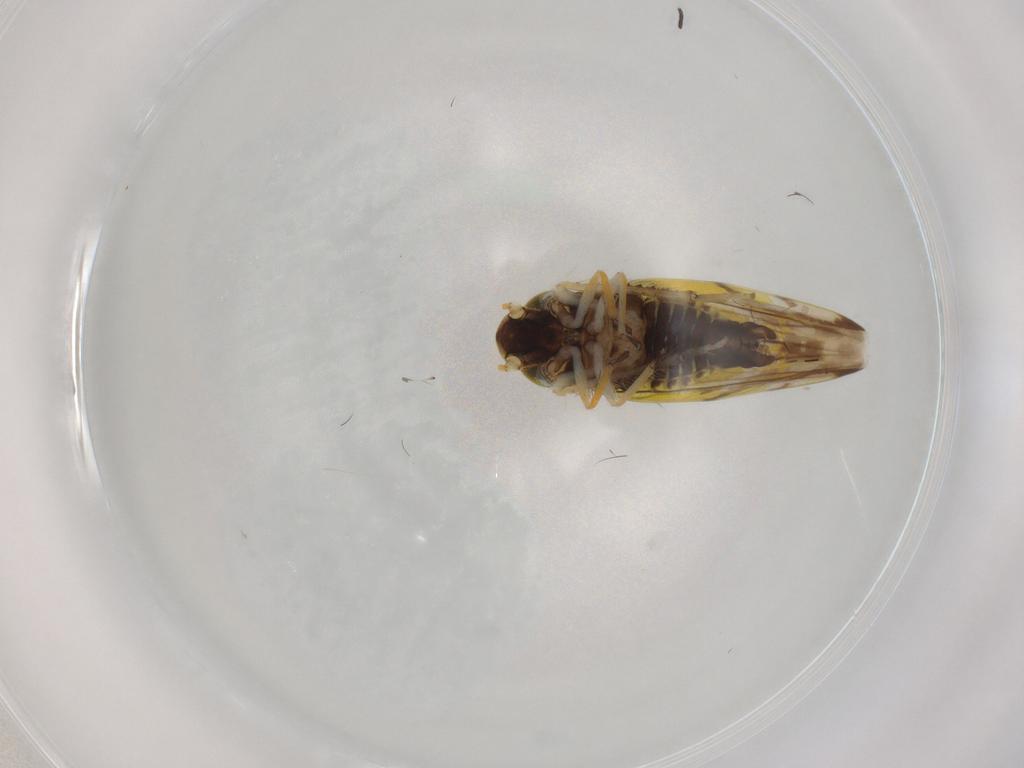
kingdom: Animalia
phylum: Arthropoda
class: Insecta
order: Hemiptera
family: Cicadellidae
